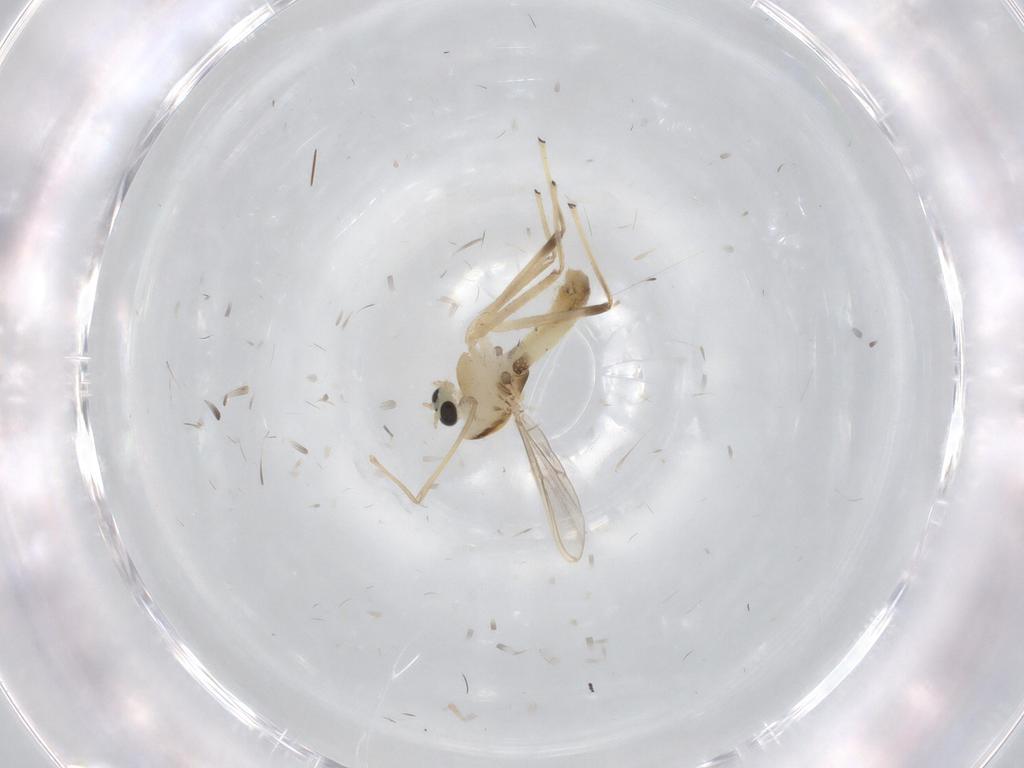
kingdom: Animalia
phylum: Arthropoda
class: Insecta
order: Diptera
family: Chironomidae
